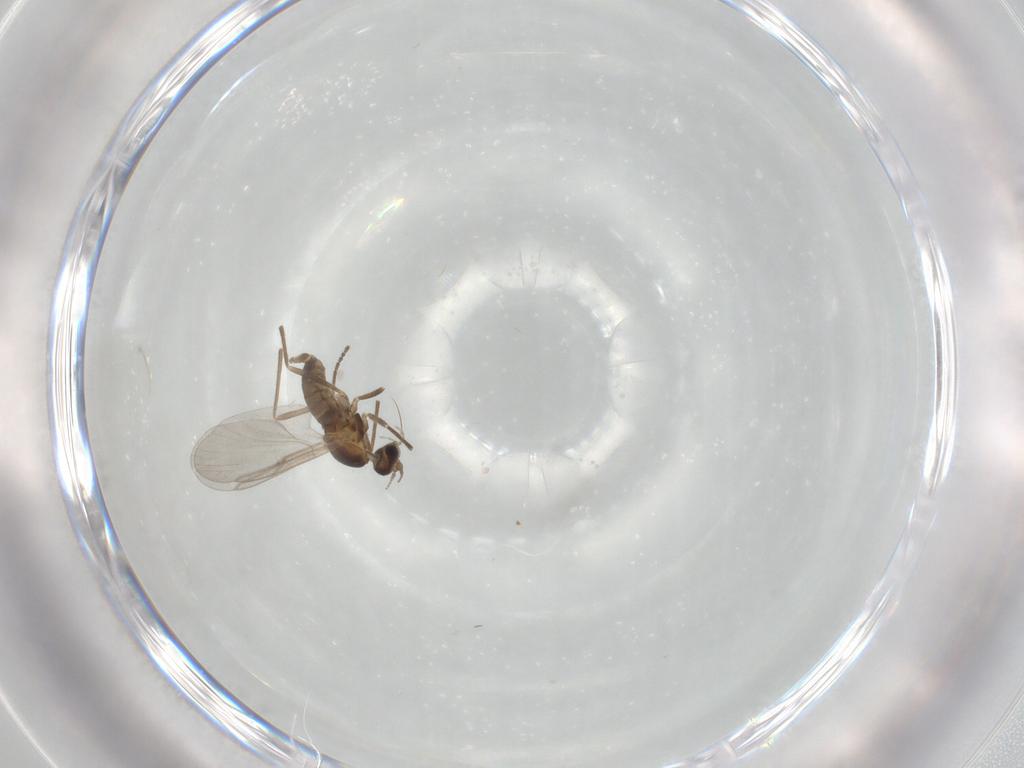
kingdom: Animalia
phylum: Arthropoda
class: Insecta
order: Diptera
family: Cecidomyiidae
